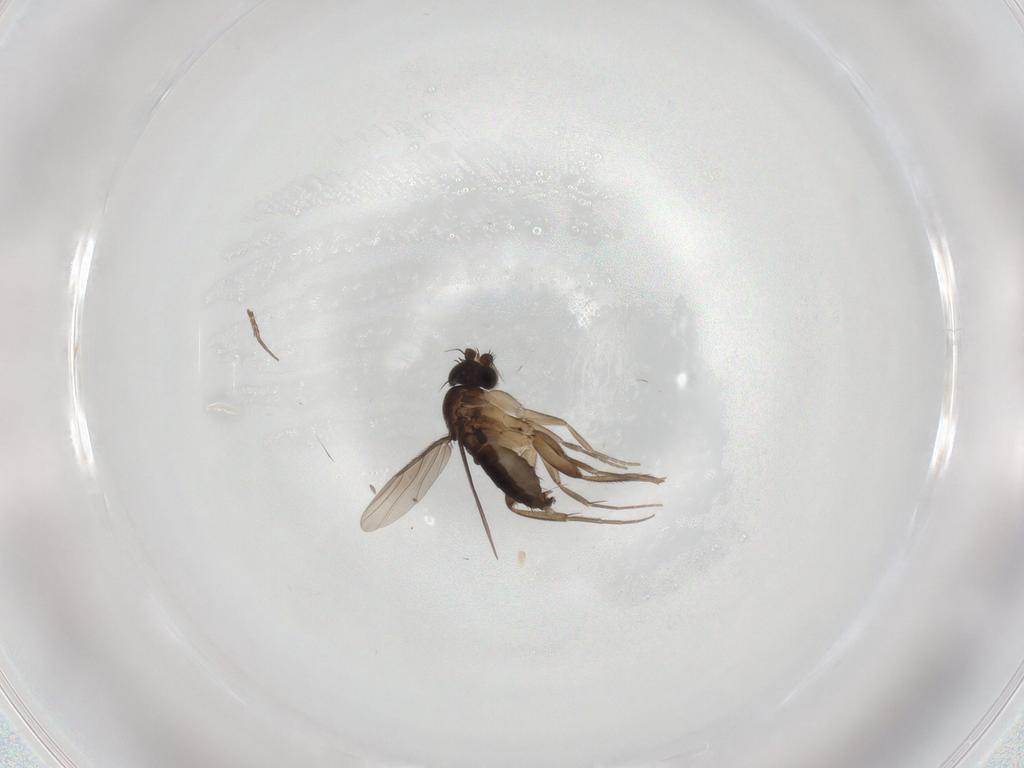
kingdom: Animalia
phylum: Arthropoda
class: Insecta
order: Diptera
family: Phoridae
